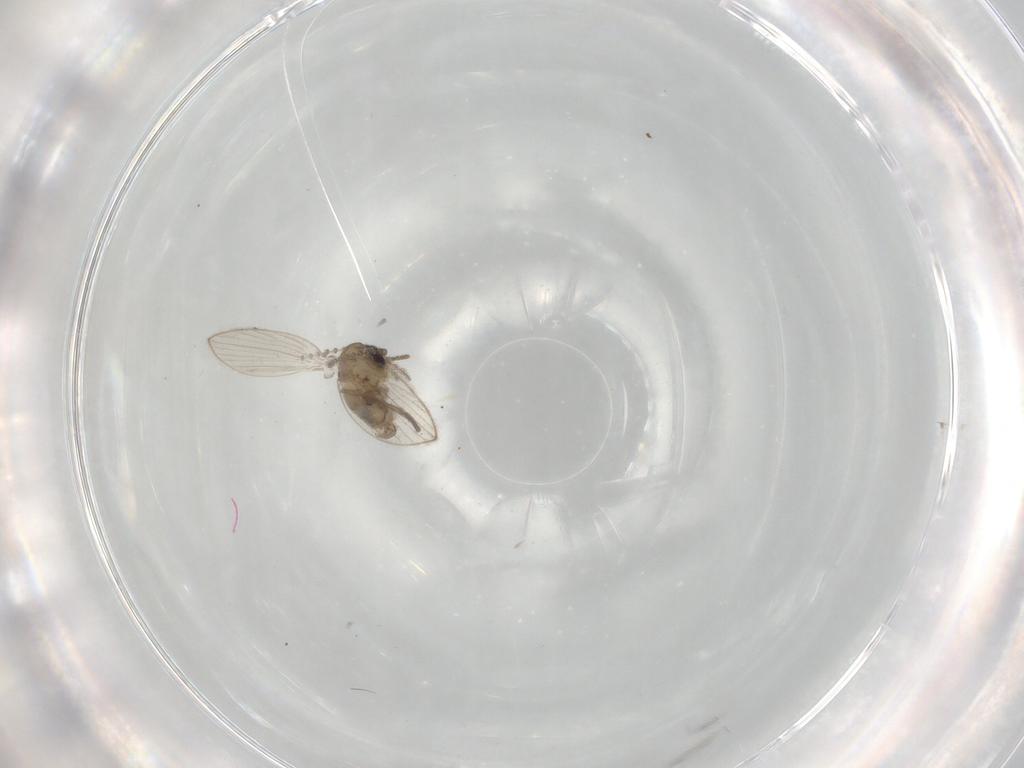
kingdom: Animalia
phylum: Arthropoda
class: Insecta
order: Diptera
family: Psychodidae
